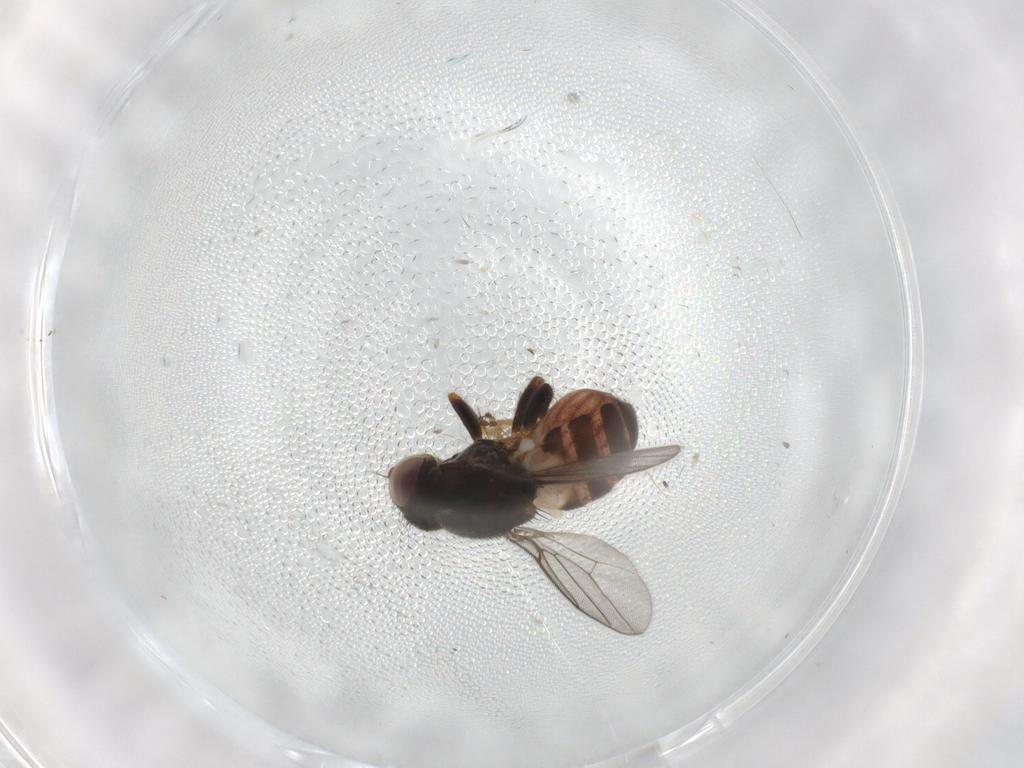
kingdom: Animalia
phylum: Arthropoda
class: Insecta
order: Diptera
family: Chloropidae
